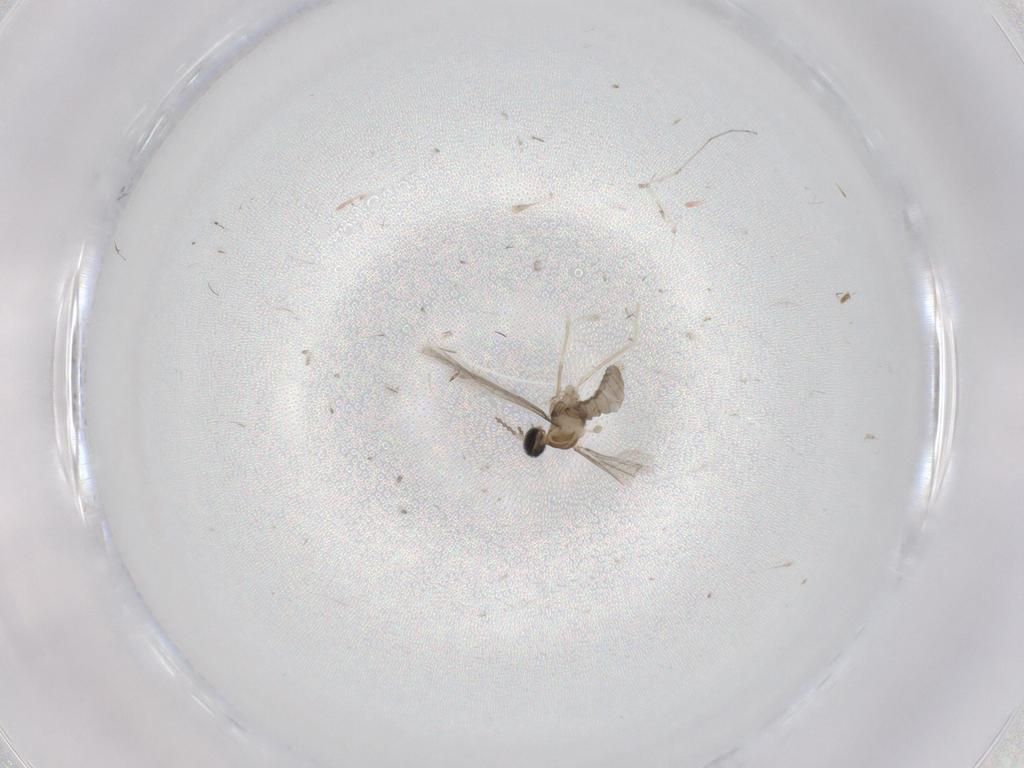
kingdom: Animalia
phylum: Arthropoda
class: Insecta
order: Diptera
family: Cecidomyiidae
